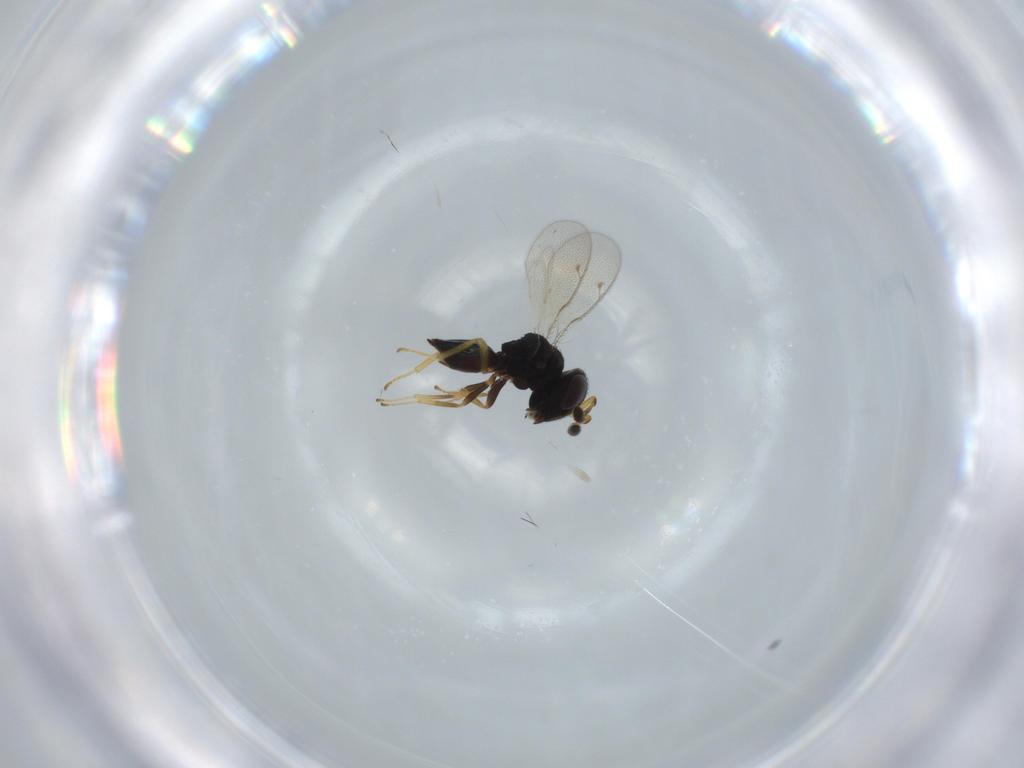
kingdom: Animalia
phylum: Arthropoda
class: Insecta
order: Hymenoptera
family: Pteromalidae
